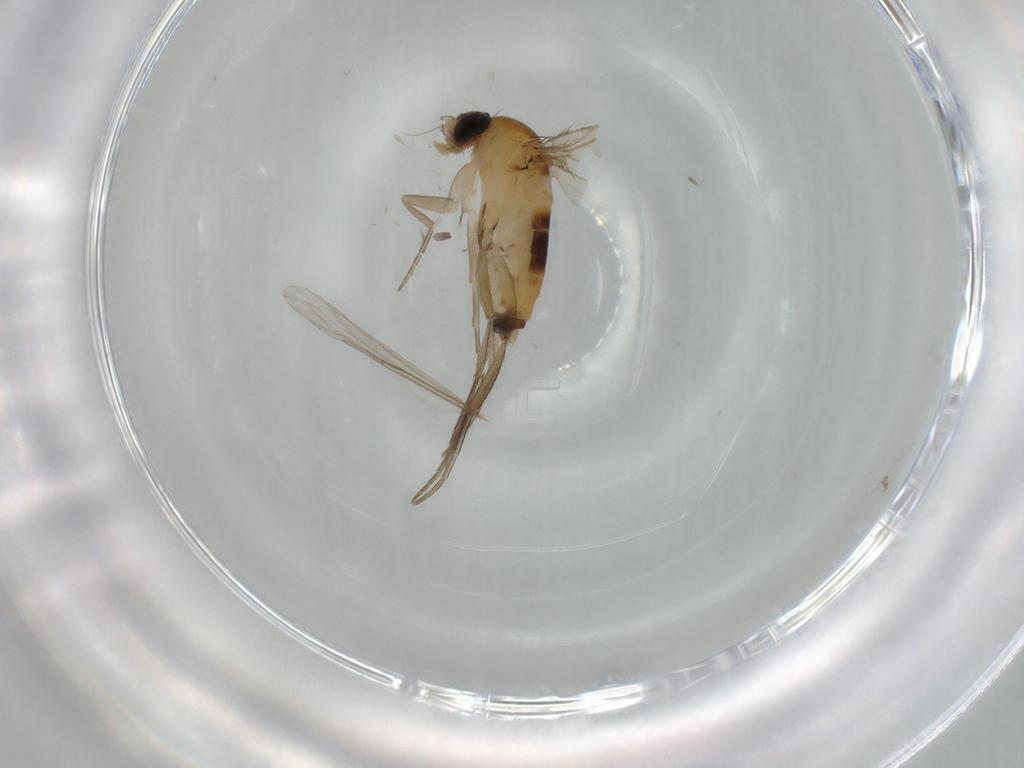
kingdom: Animalia
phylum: Arthropoda
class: Insecta
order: Diptera
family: Phoridae
